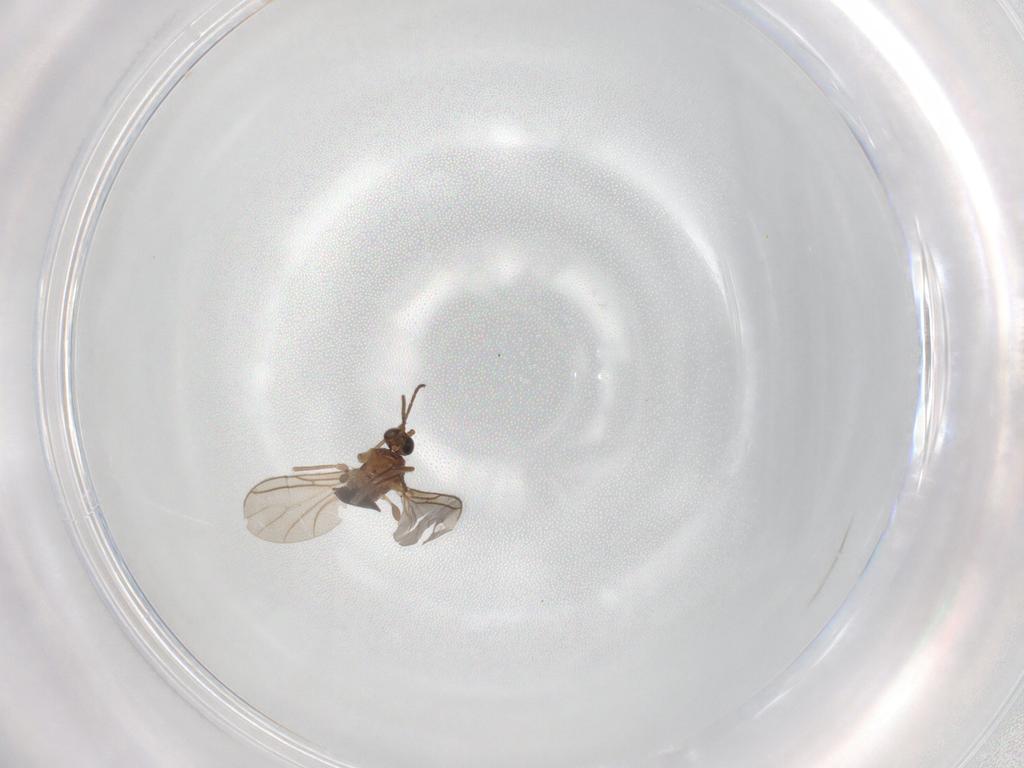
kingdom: Animalia
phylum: Arthropoda
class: Insecta
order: Diptera
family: Sciaridae
